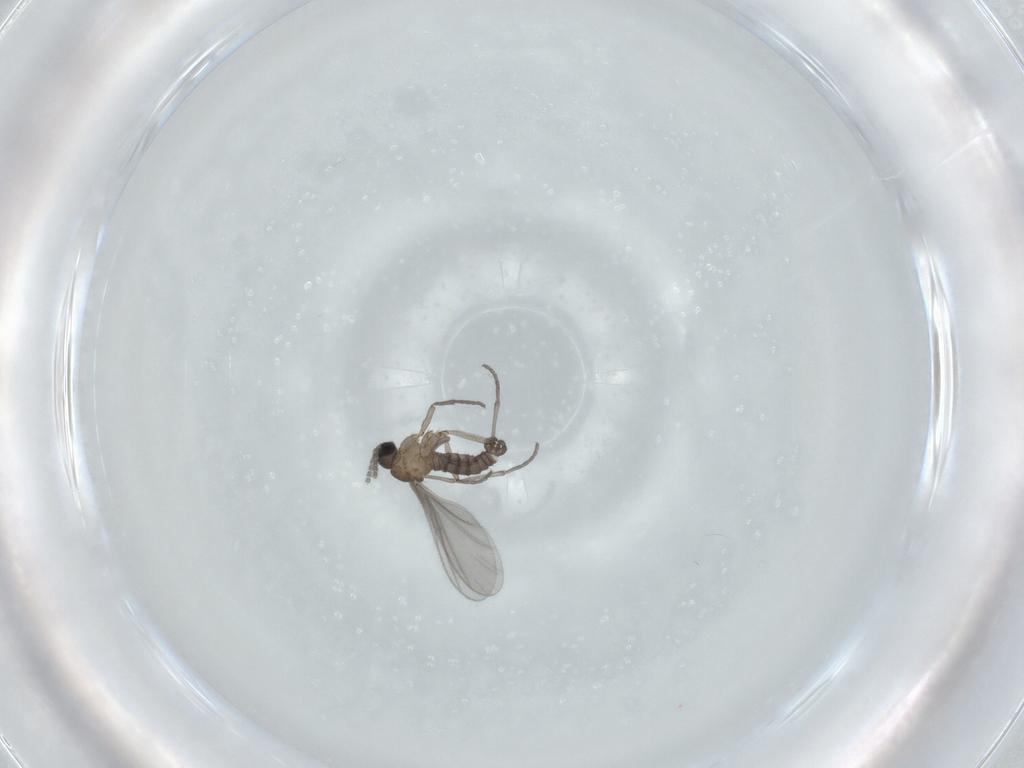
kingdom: Animalia
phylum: Arthropoda
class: Insecta
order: Diptera
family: Sciaridae
